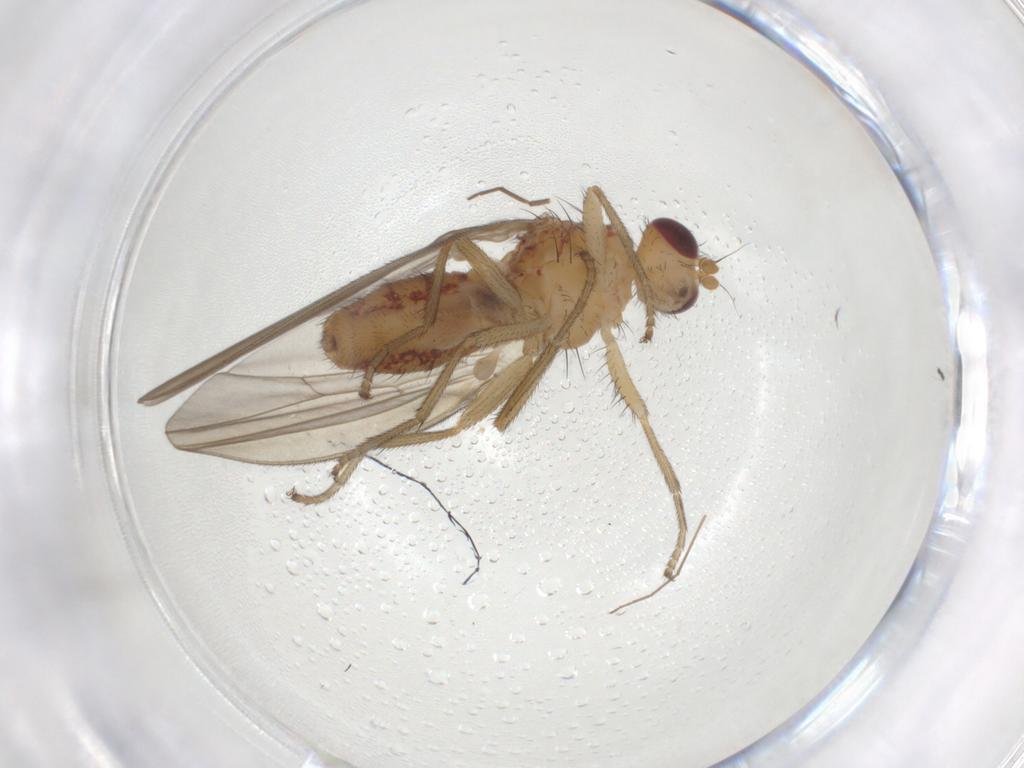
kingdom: Animalia
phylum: Arthropoda
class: Insecta
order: Diptera
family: Natalimyzidae
